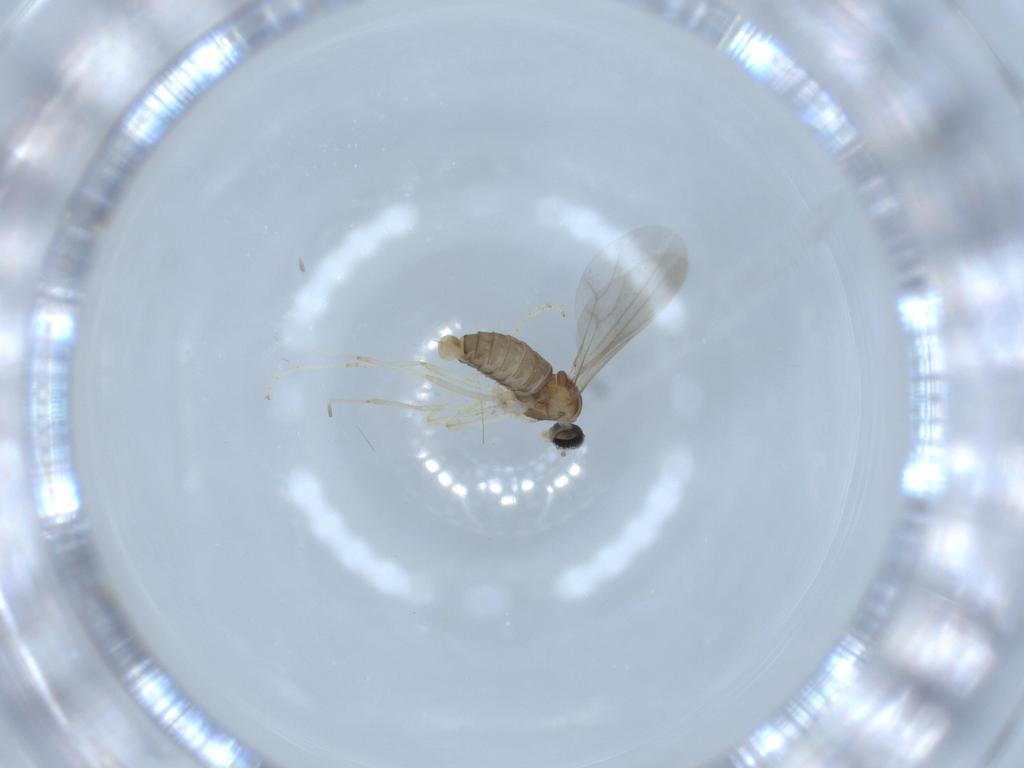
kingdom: Animalia
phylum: Arthropoda
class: Insecta
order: Diptera
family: Sciaridae
